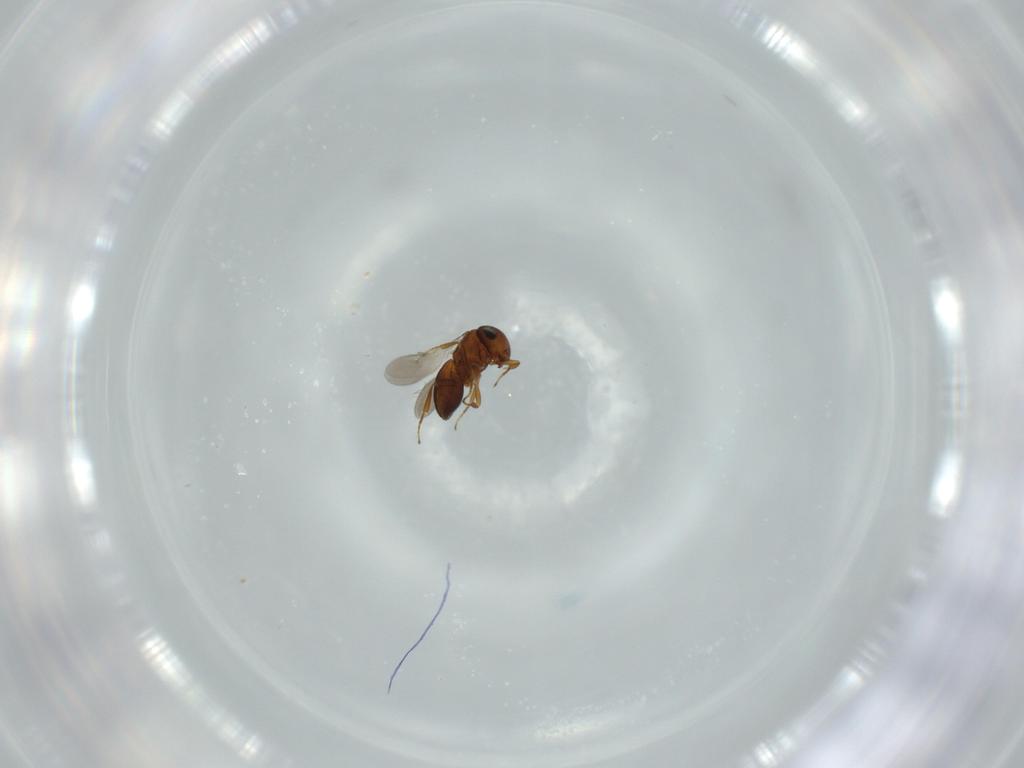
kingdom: Animalia
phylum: Arthropoda
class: Insecta
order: Hymenoptera
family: Scelionidae
